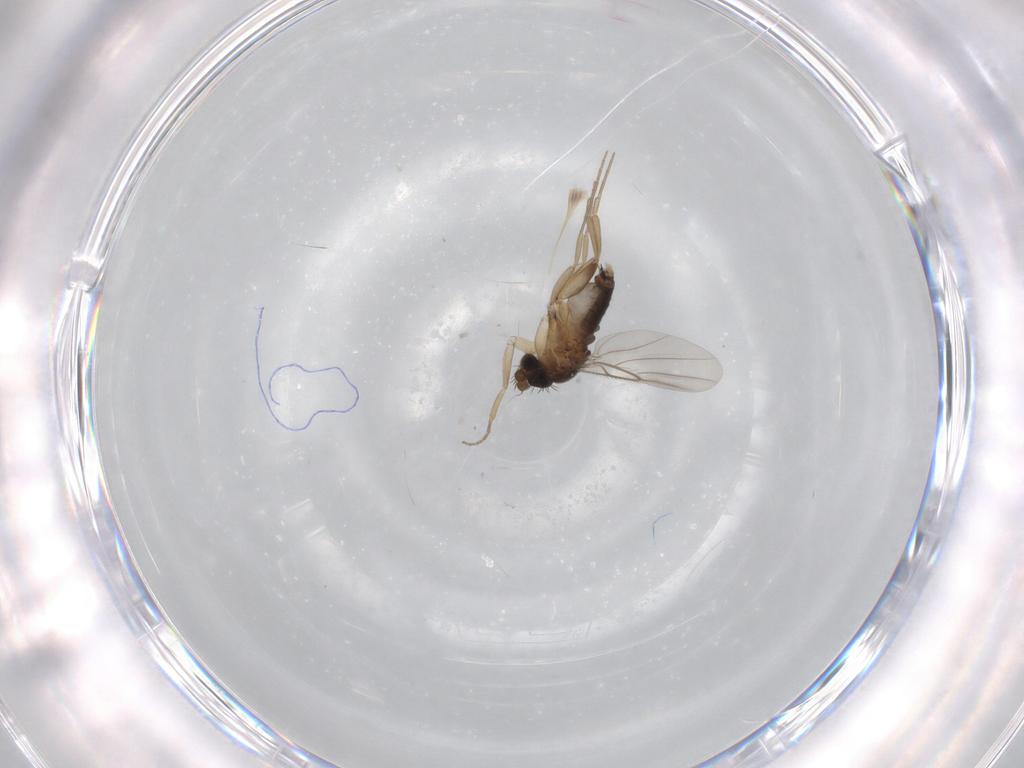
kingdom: Animalia
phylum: Arthropoda
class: Insecta
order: Diptera
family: Phoridae
